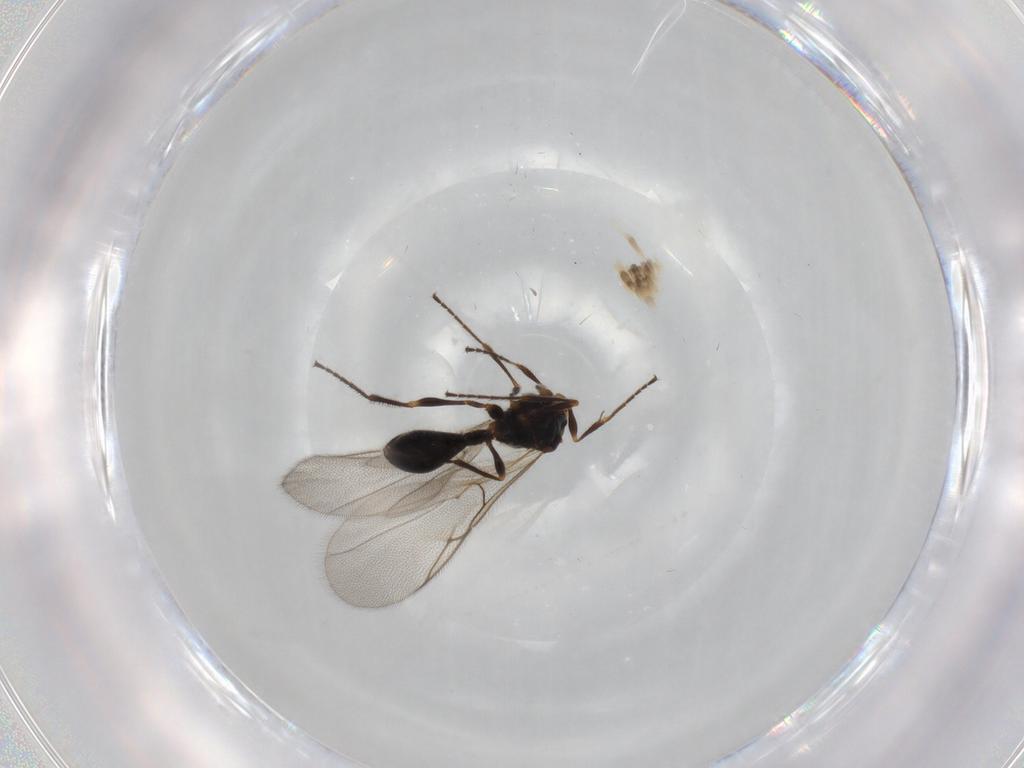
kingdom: Animalia
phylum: Arthropoda
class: Insecta
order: Hymenoptera
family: Diapriidae
